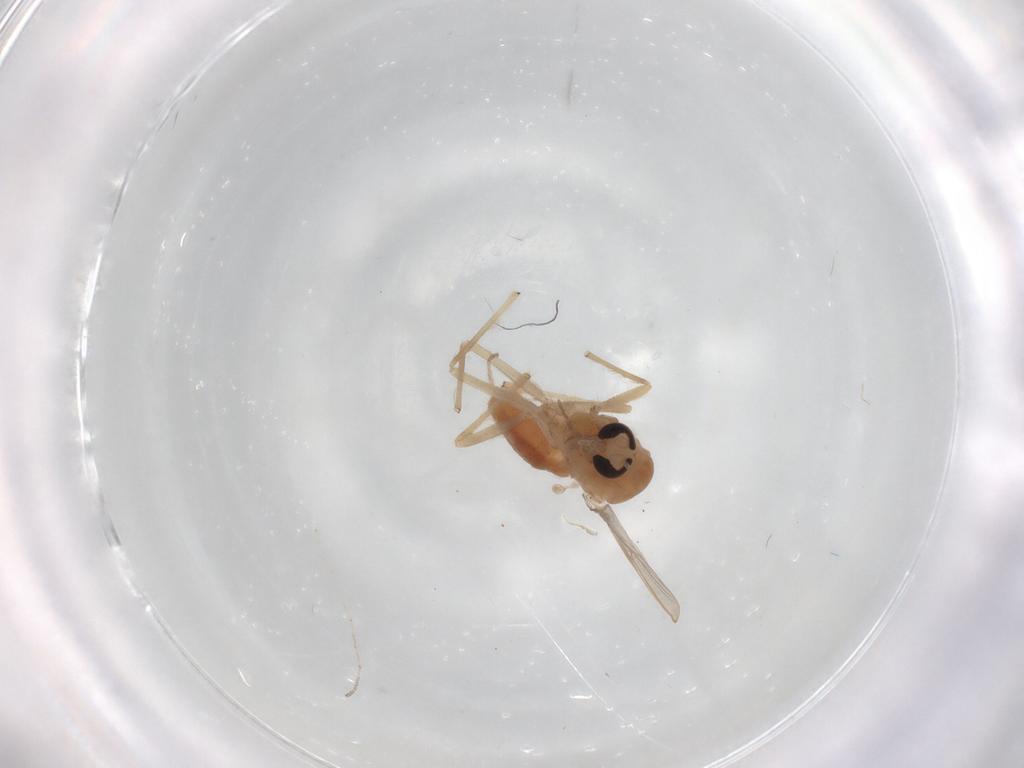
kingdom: Animalia
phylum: Arthropoda
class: Insecta
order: Diptera
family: Chironomidae
